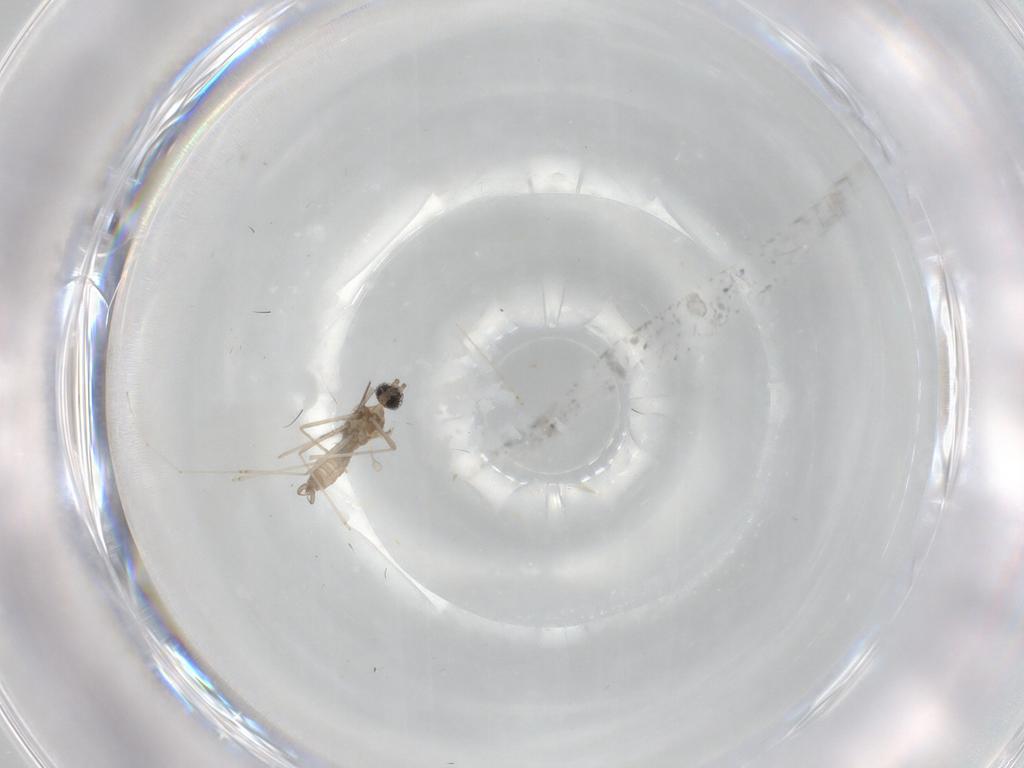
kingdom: Animalia
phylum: Arthropoda
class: Insecta
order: Diptera
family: Cecidomyiidae
